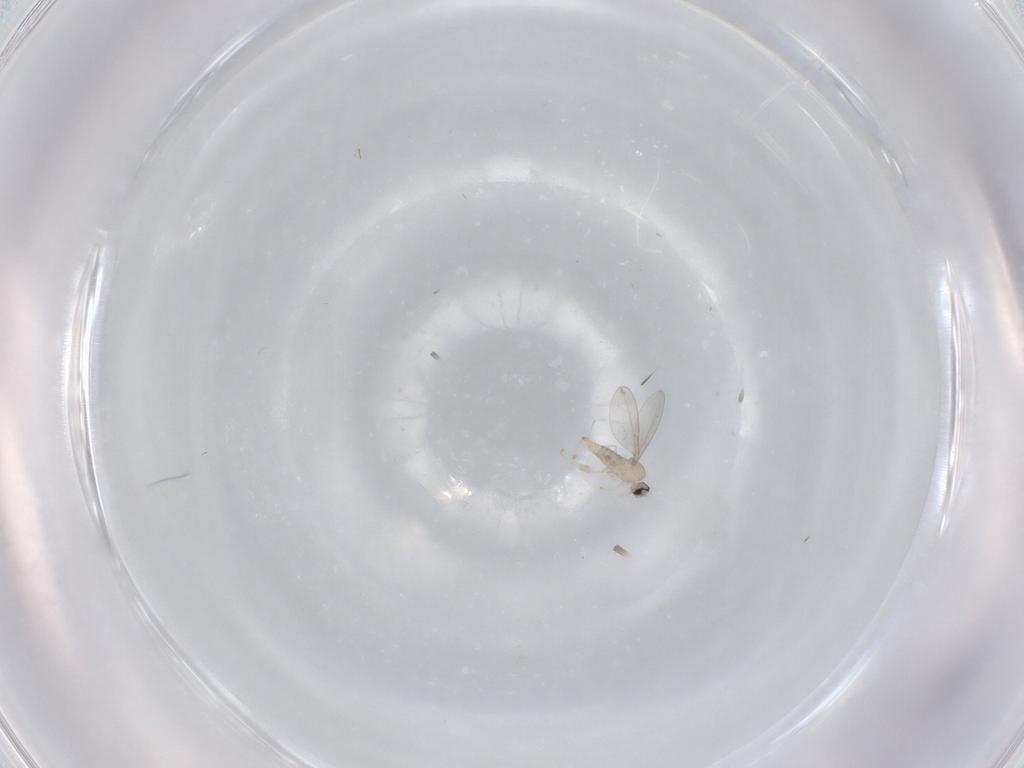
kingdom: Animalia
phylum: Arthropoda
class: Insecta
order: Diptera
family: Cecidomyiidae
